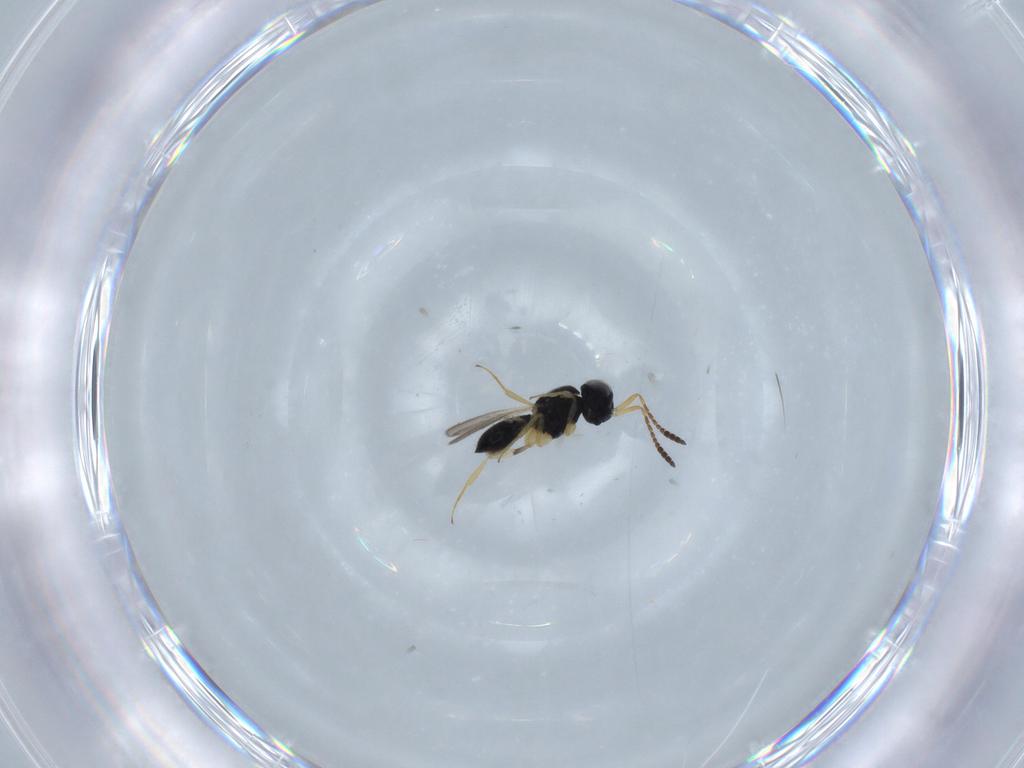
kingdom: Animalia
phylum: Arthropoda
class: Insecta
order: Hymenoptera
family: Scelionidae
